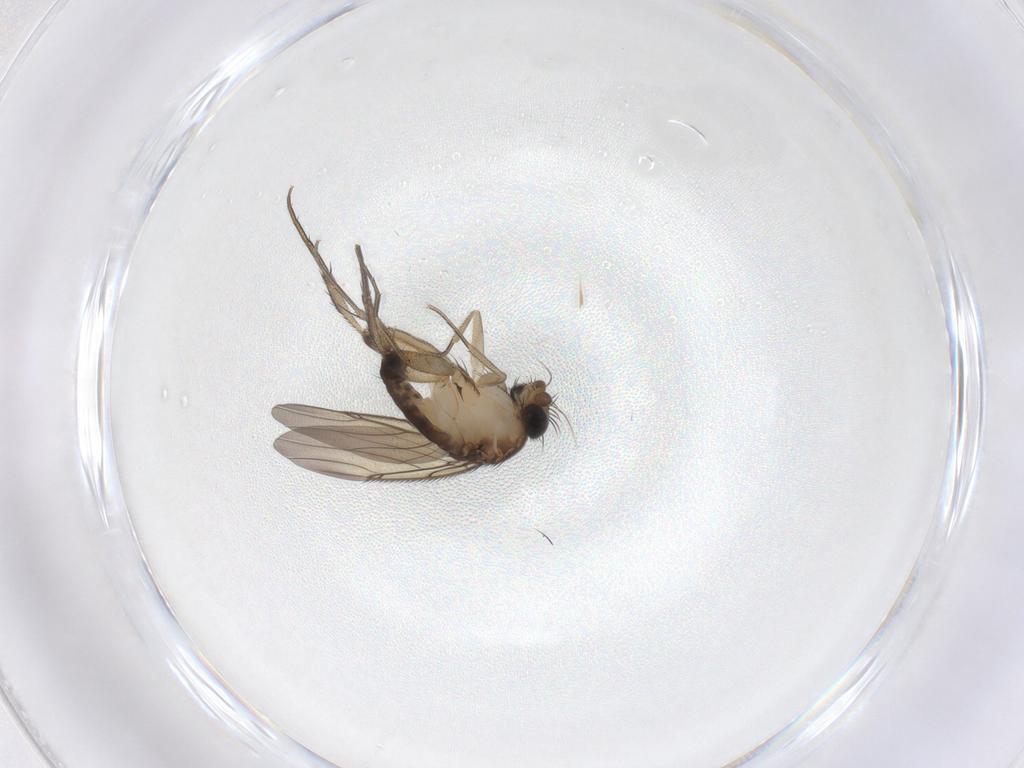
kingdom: Animalia
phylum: Arthropoda
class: Insecta
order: Diptera
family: Phoridae
